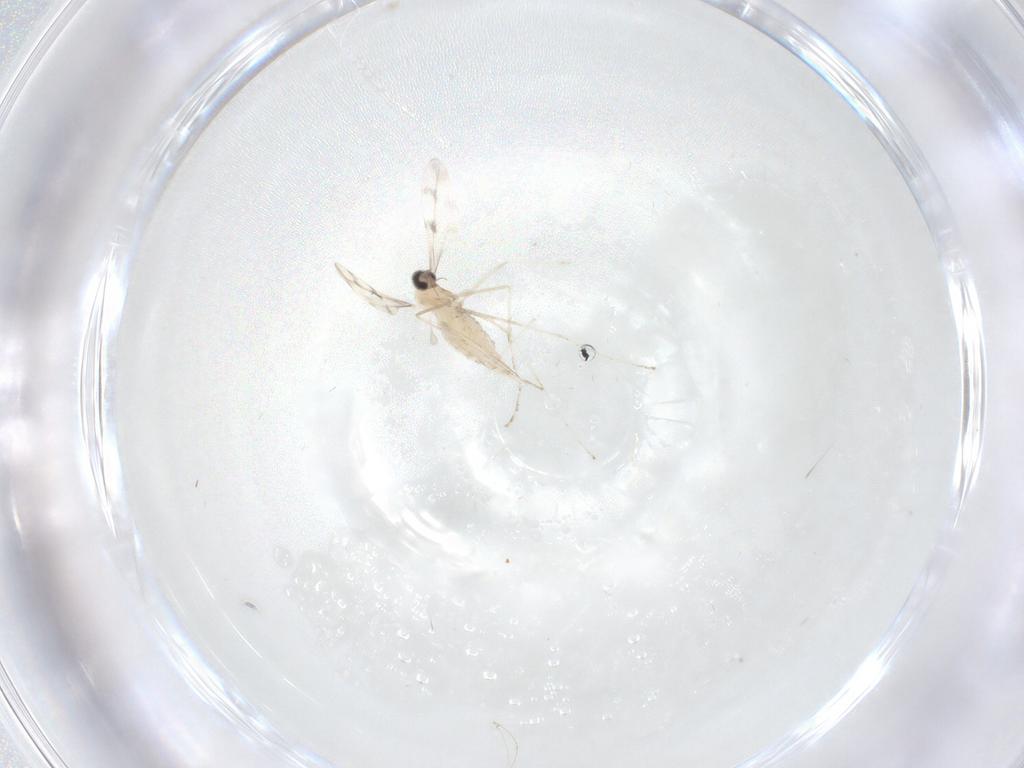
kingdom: Animalia
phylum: Arthropoda
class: Insecta
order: Diptera
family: Cecidomyiidae
